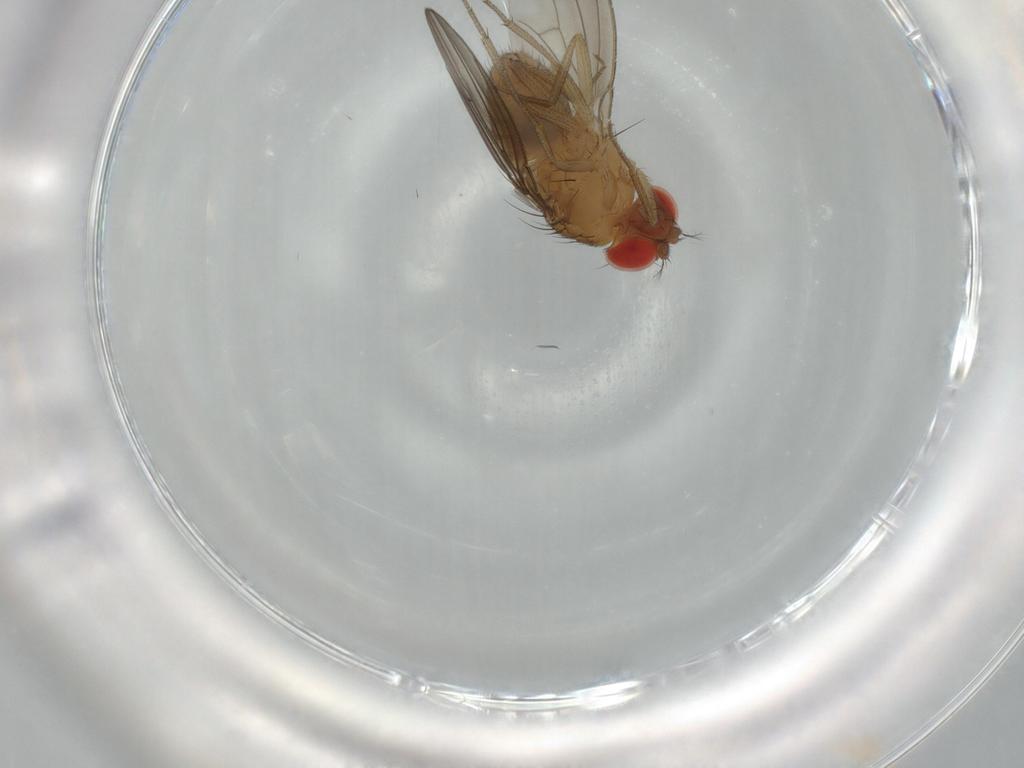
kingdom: Animalia
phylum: Arthropoda
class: Insecta
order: Diptera
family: Drosophilidae
